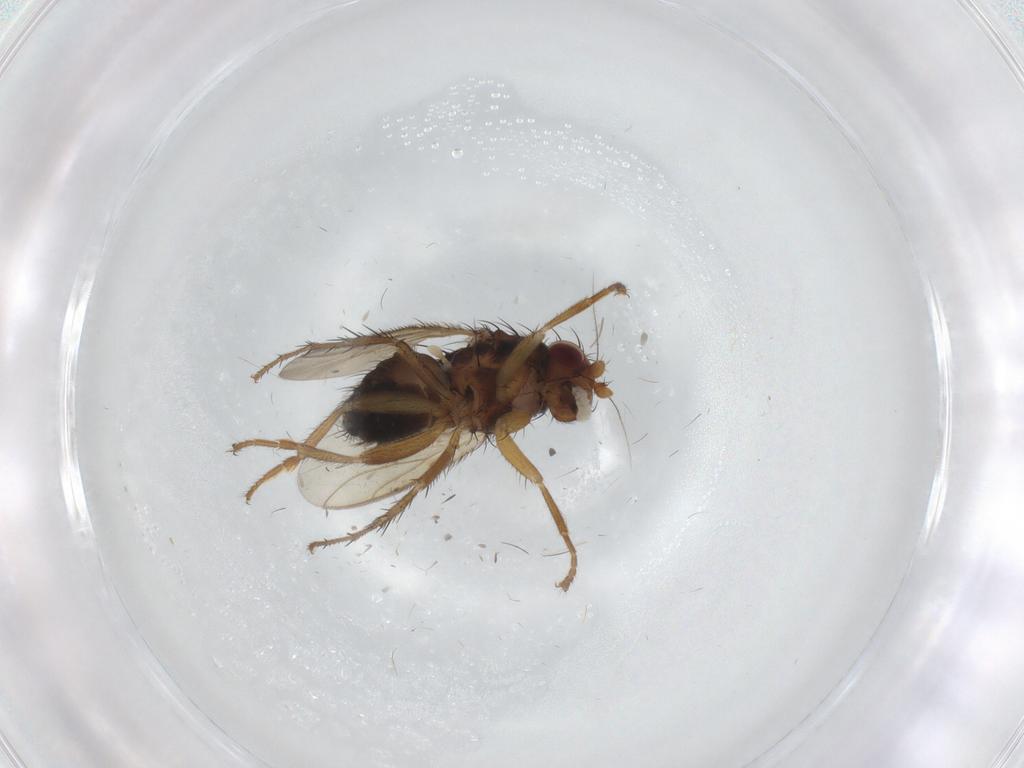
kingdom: Animalia
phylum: Arthropoda
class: Insecta
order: Diptera
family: Sphaeroceridae
